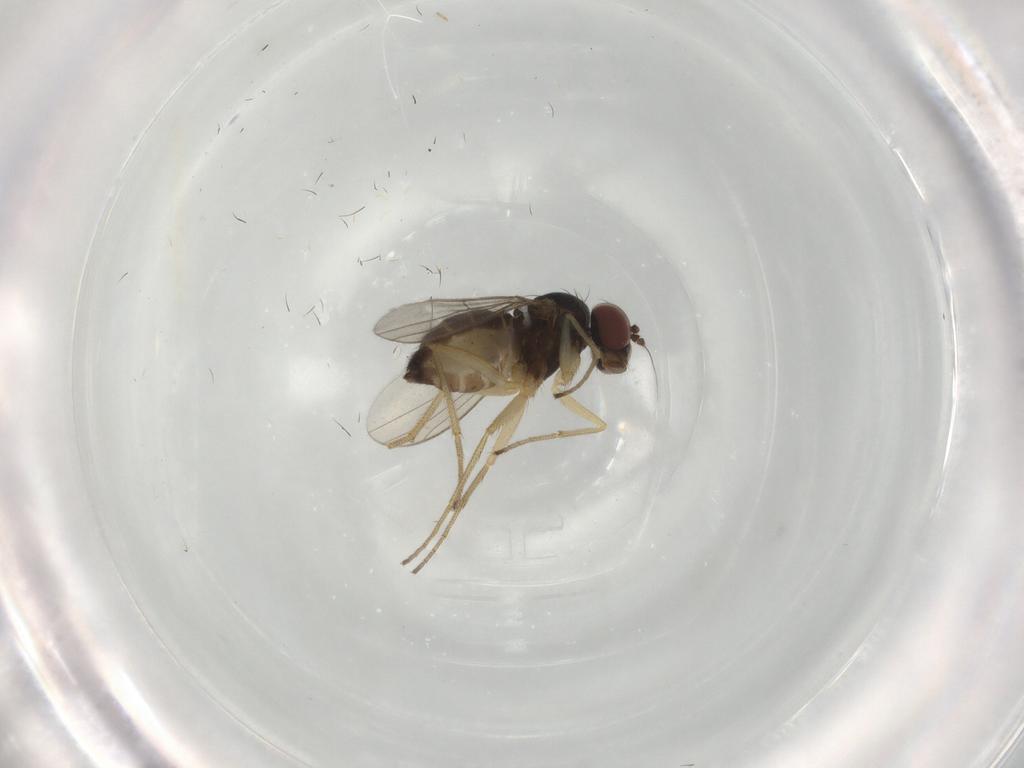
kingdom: Animalia
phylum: Arthropoda
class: Insecta
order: Diptera
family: Dolichopodidae
